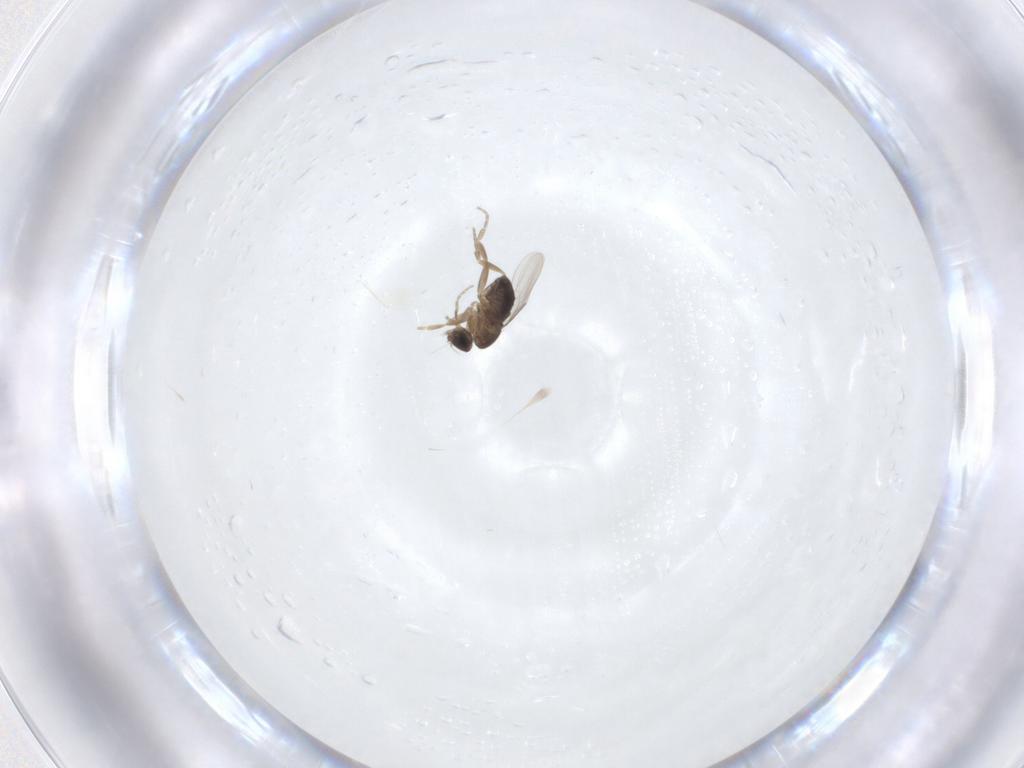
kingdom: Animalia
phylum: Arthropoda
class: Insecta
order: Diptera
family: Phoridae
